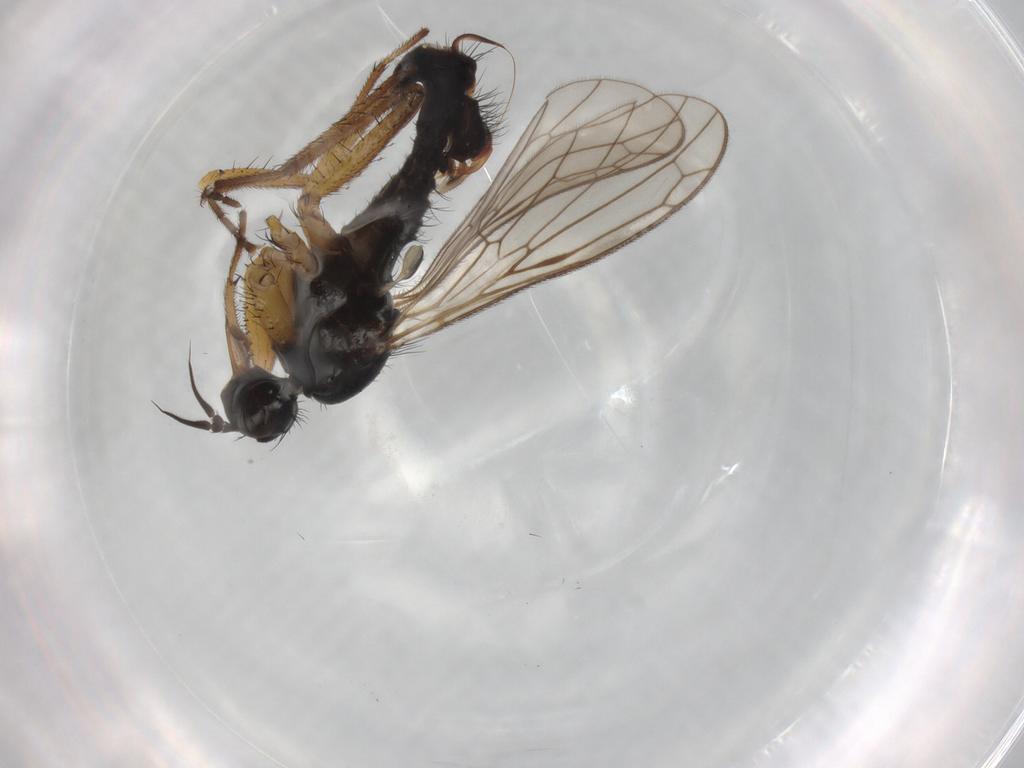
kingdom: Animalia
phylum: Arthropoda
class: Insecta
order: Diptera
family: Empididae
